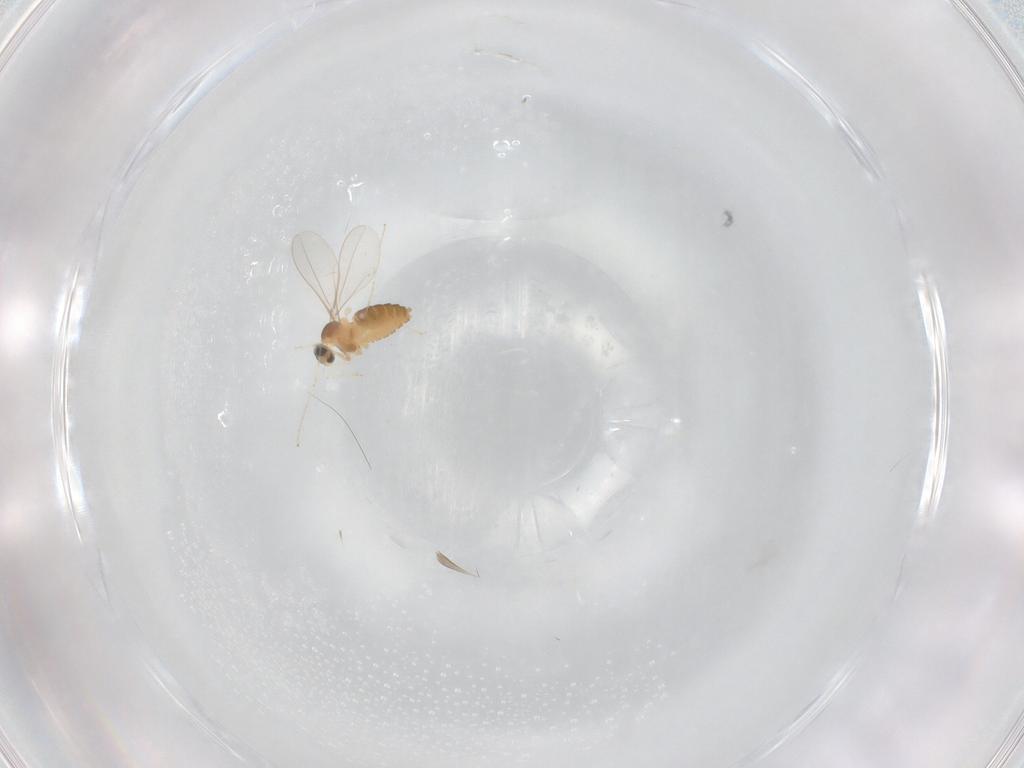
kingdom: Animalia
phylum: Arthropoda
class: Insecta
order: Diptera
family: Cecidomyiidae
